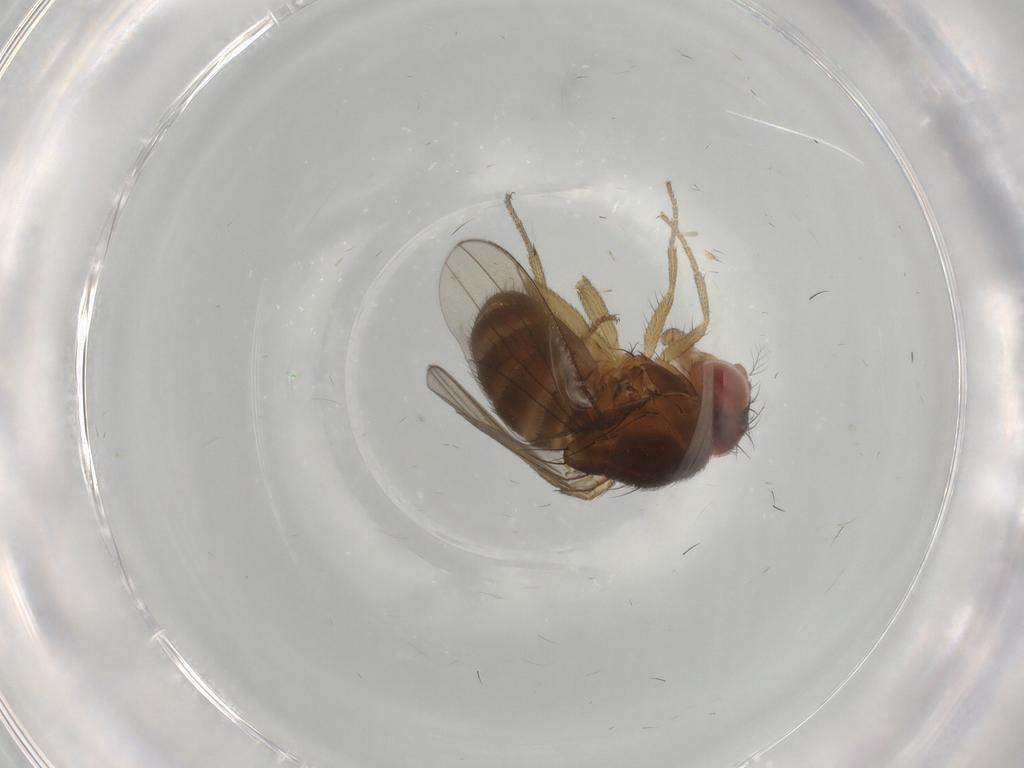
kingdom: Animalia
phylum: Arthropoda
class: Insecta
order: Diptera
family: Drosophilidae
